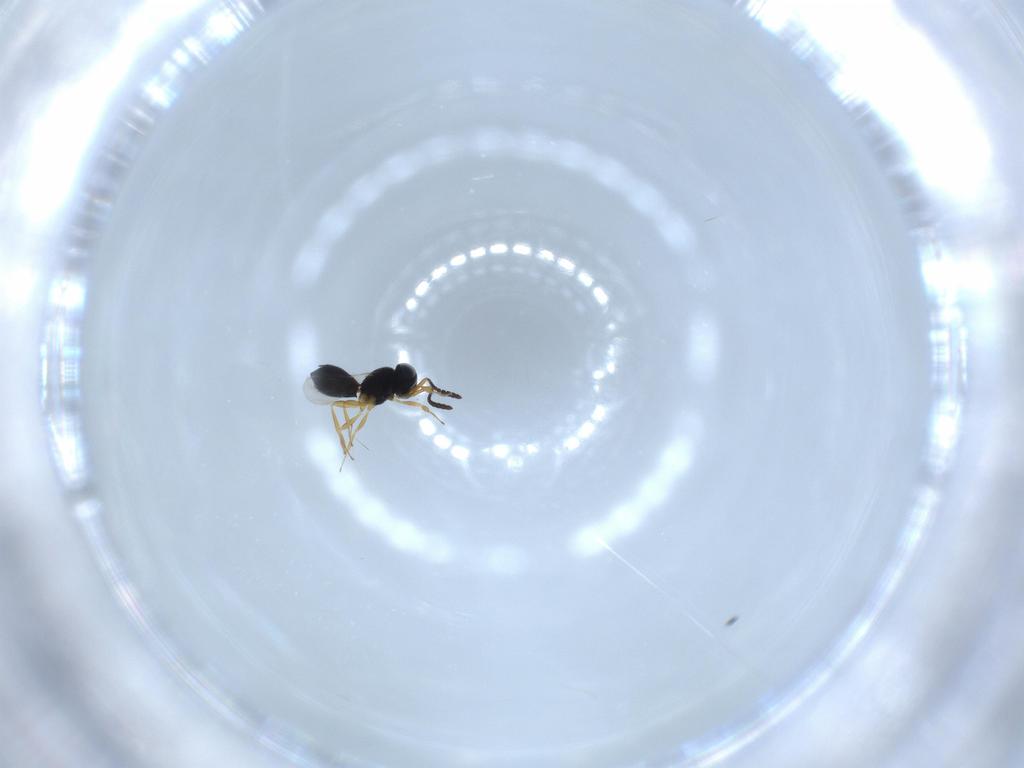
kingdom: Animalia
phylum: Arthropoda
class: Insecta
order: Hymenoptera
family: Scelionidae
